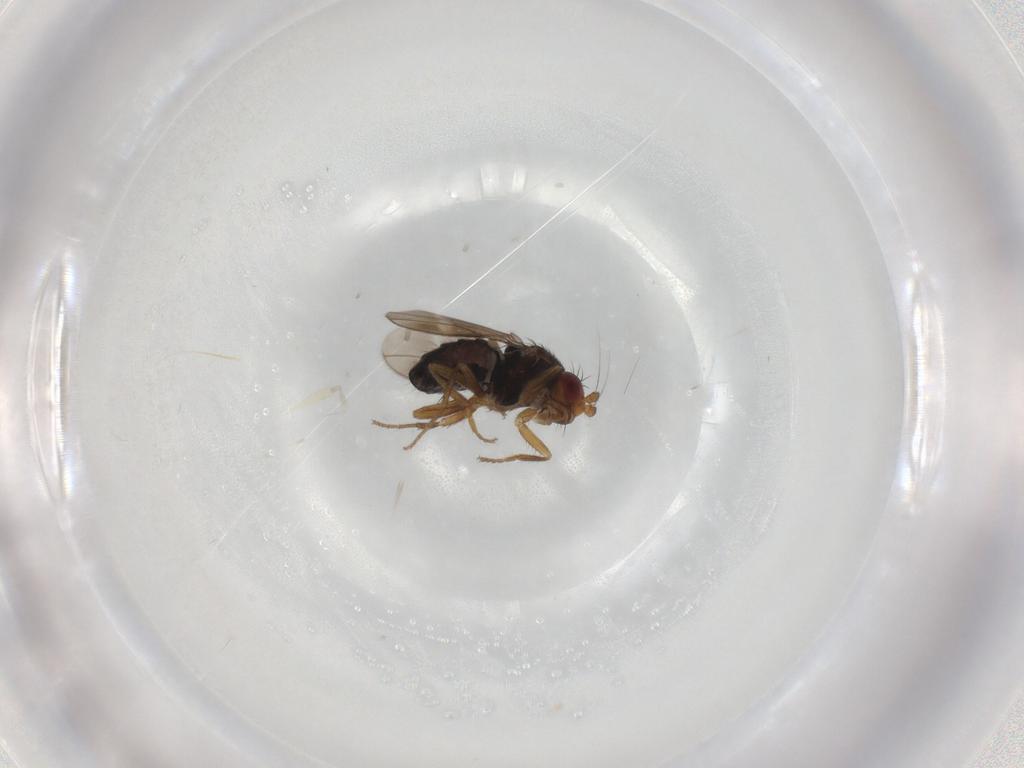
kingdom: Animalia
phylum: Arthropoda
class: Insecta
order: Diptera
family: Sphaeroceridae
